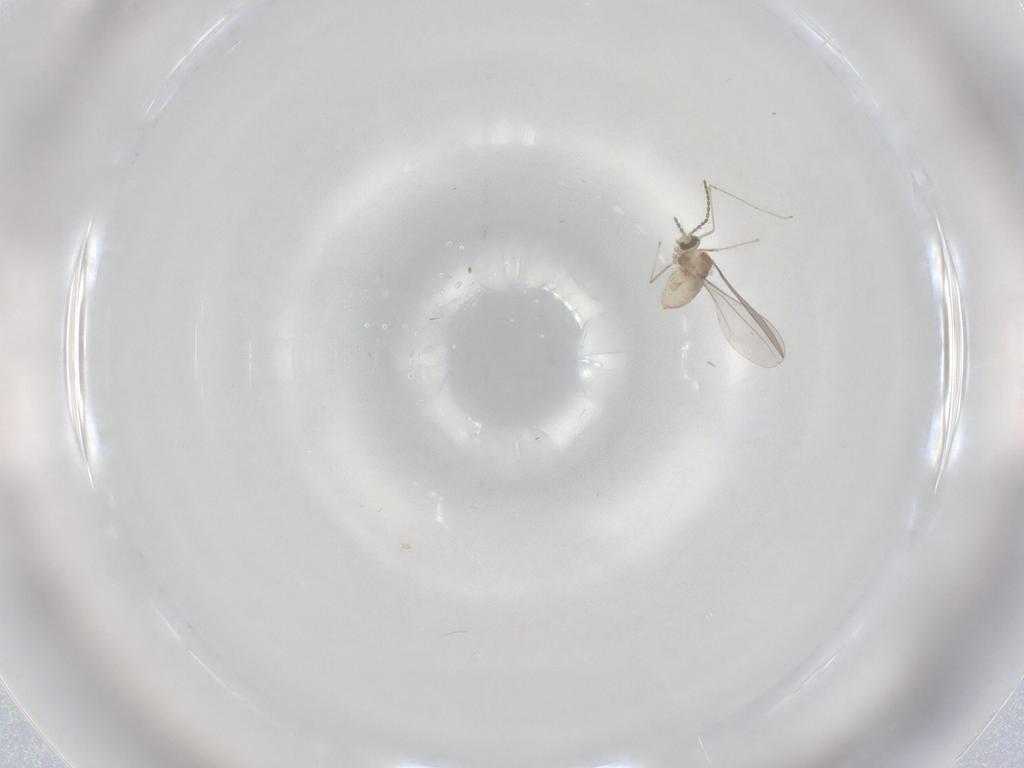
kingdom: Animalia
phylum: Arthropoda
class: Insecta
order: Diptera
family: Cecidomyiidae
